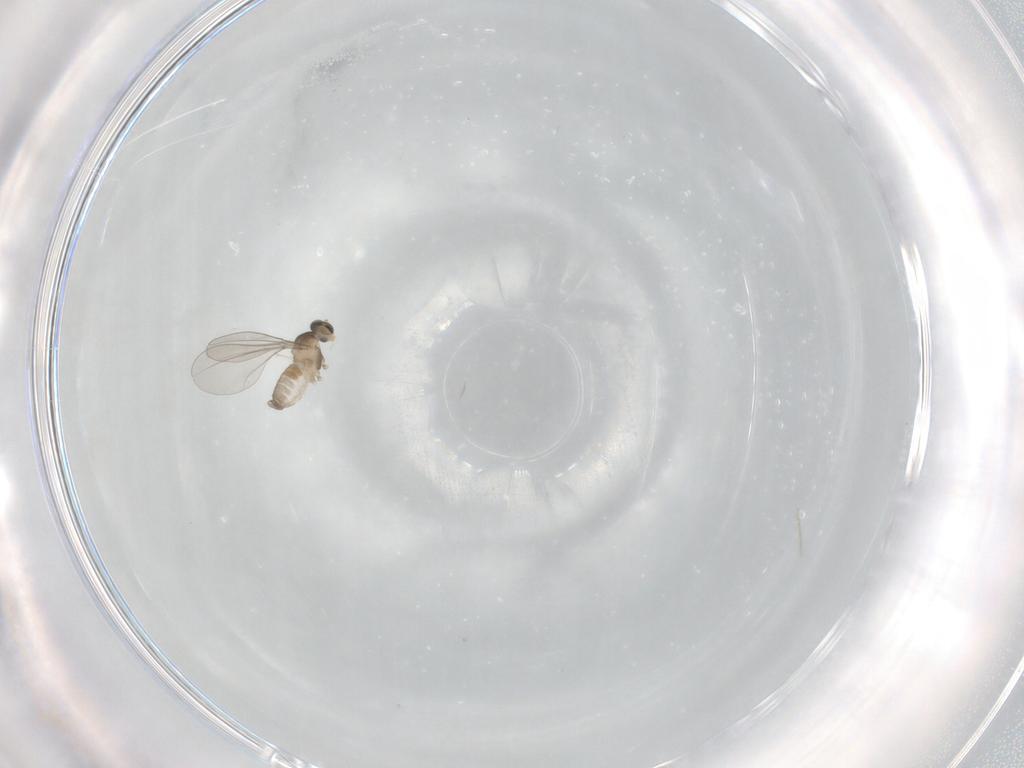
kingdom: Animalia
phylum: Arthropoda
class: Insecta
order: Diptera
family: Cecidomyiidae
